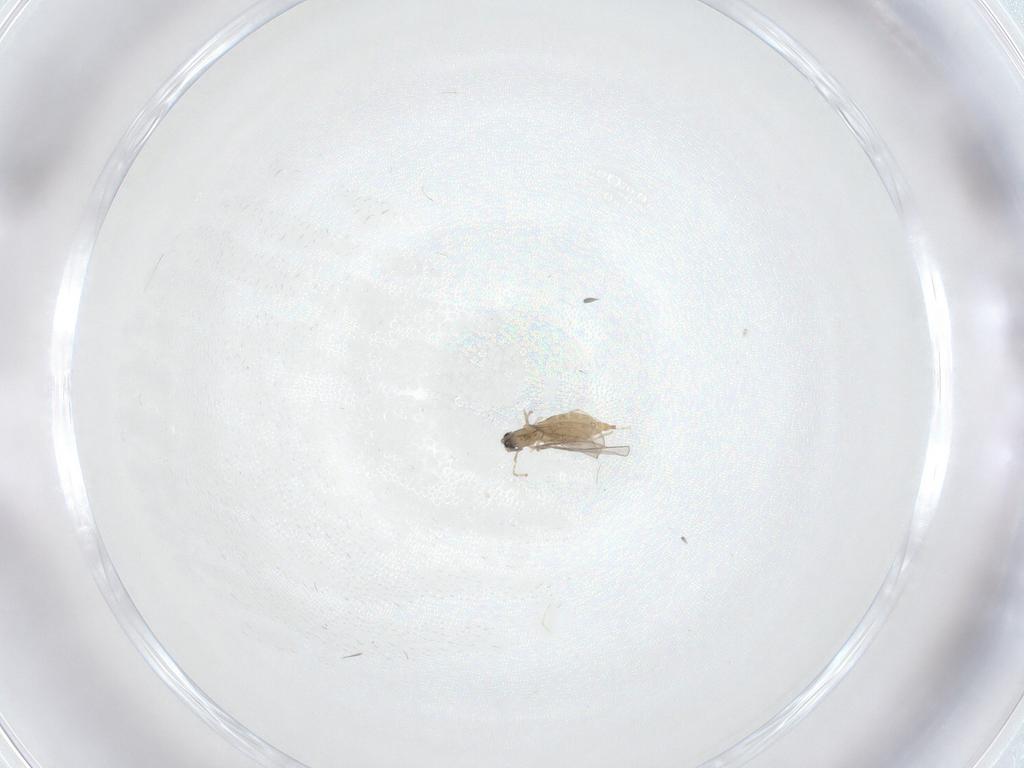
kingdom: Animalia
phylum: Arthropoda
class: Insecta
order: Diptera
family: Cecidomyiidae
